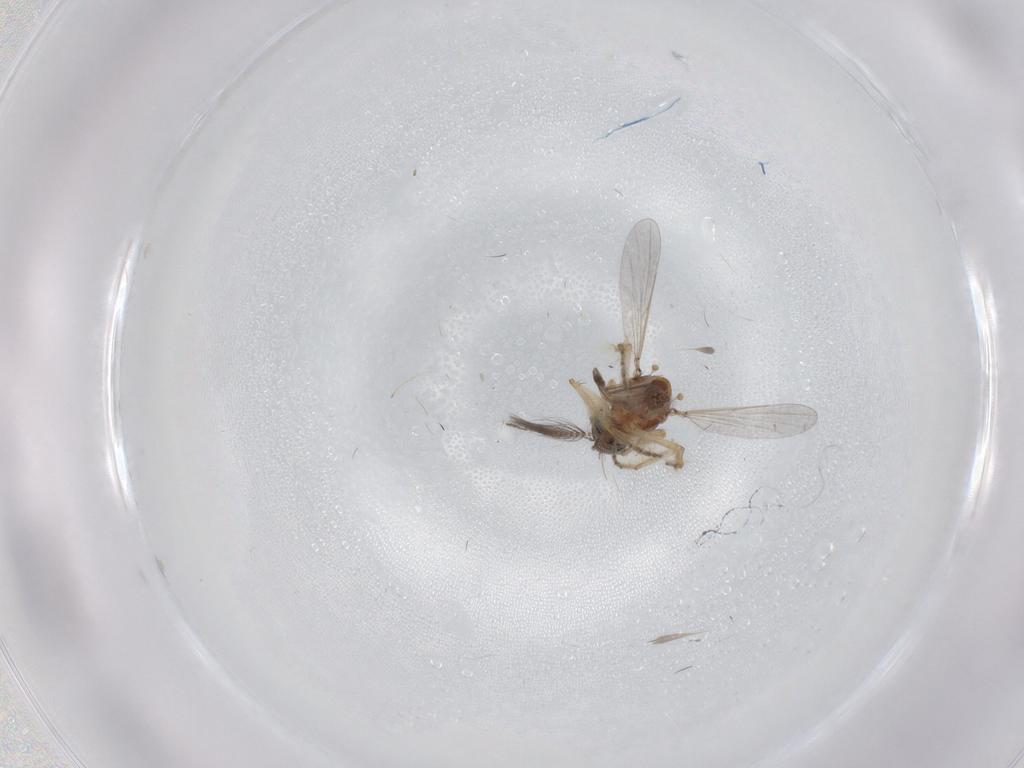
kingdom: Animalia
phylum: Arthropoda
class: Insecta
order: Diptera
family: Ceratopogonidae
